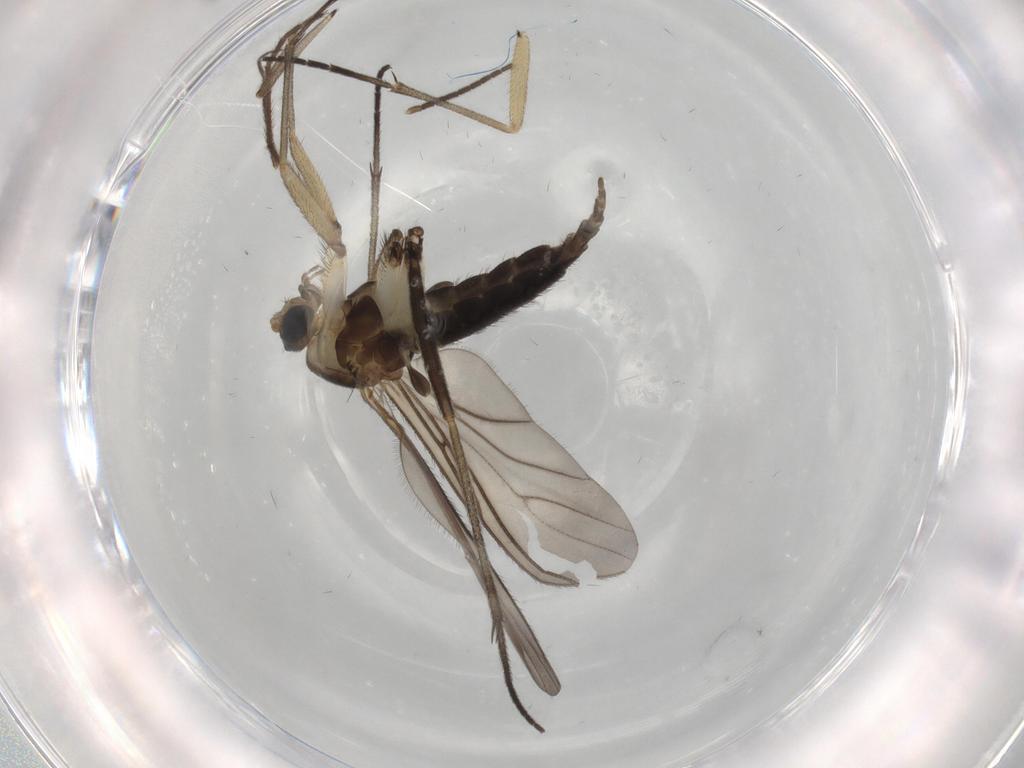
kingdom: Animalia
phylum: Arthropoda
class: Insecta
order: Diptera
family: Sciaridae
